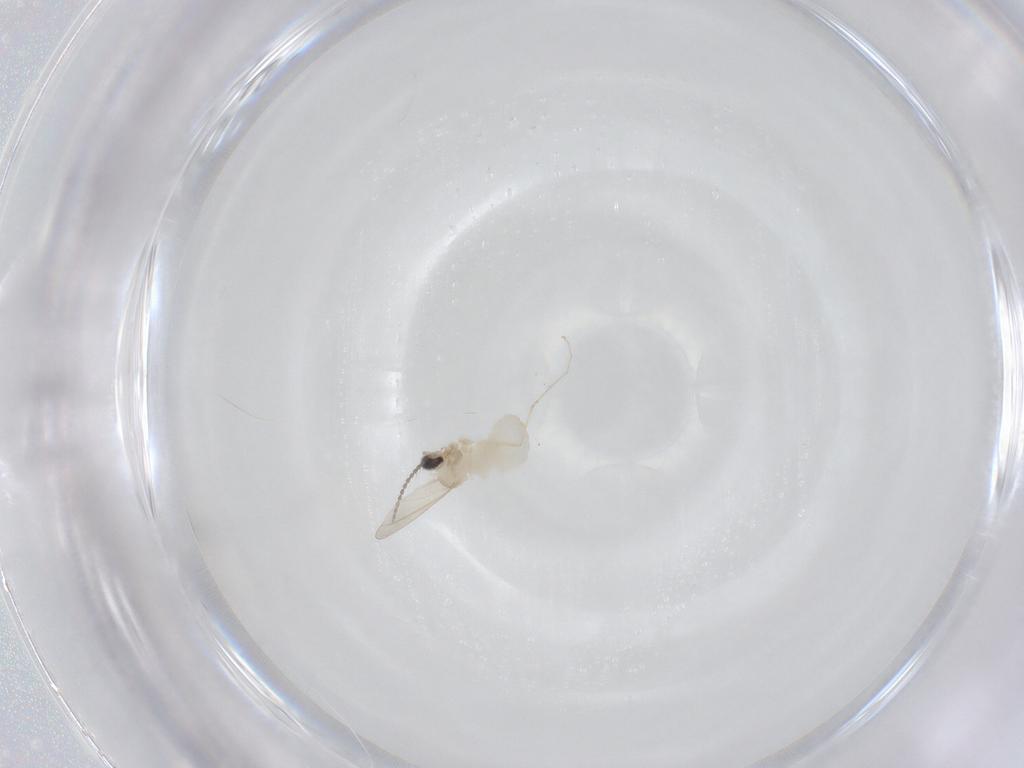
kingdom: Animalia
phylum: Arthropoda
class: Insecta
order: Diptera
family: Cecidomyiidae
